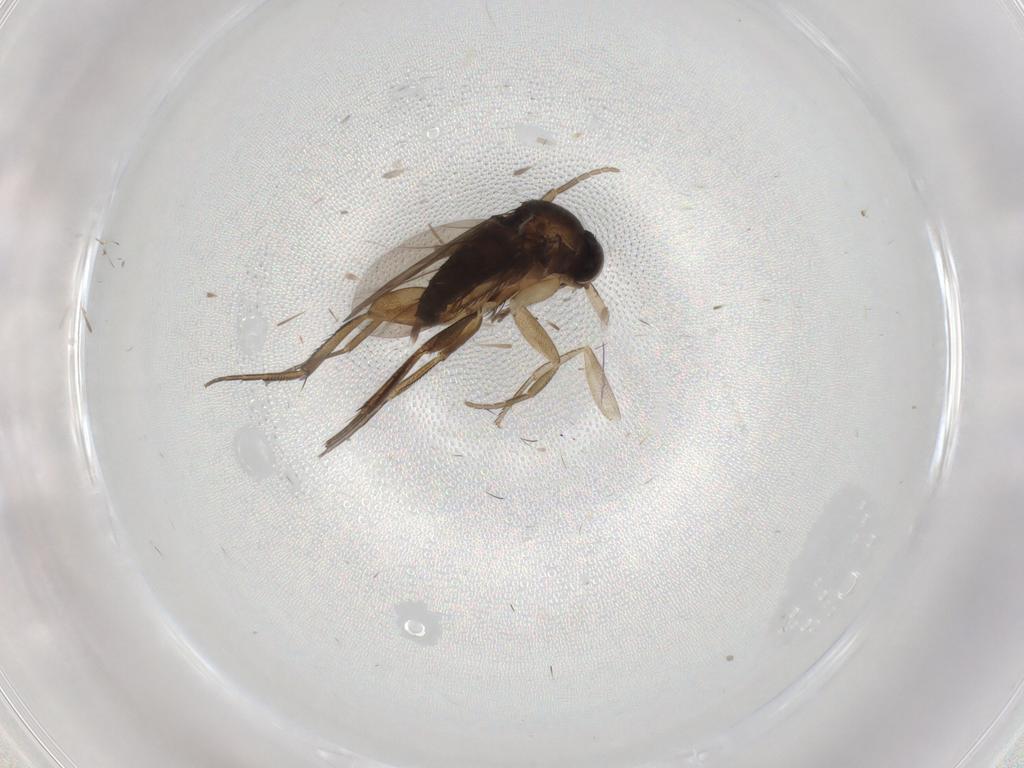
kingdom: Animalia
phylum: Arthropoda
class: Insecta
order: Diptera
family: Phoridae
